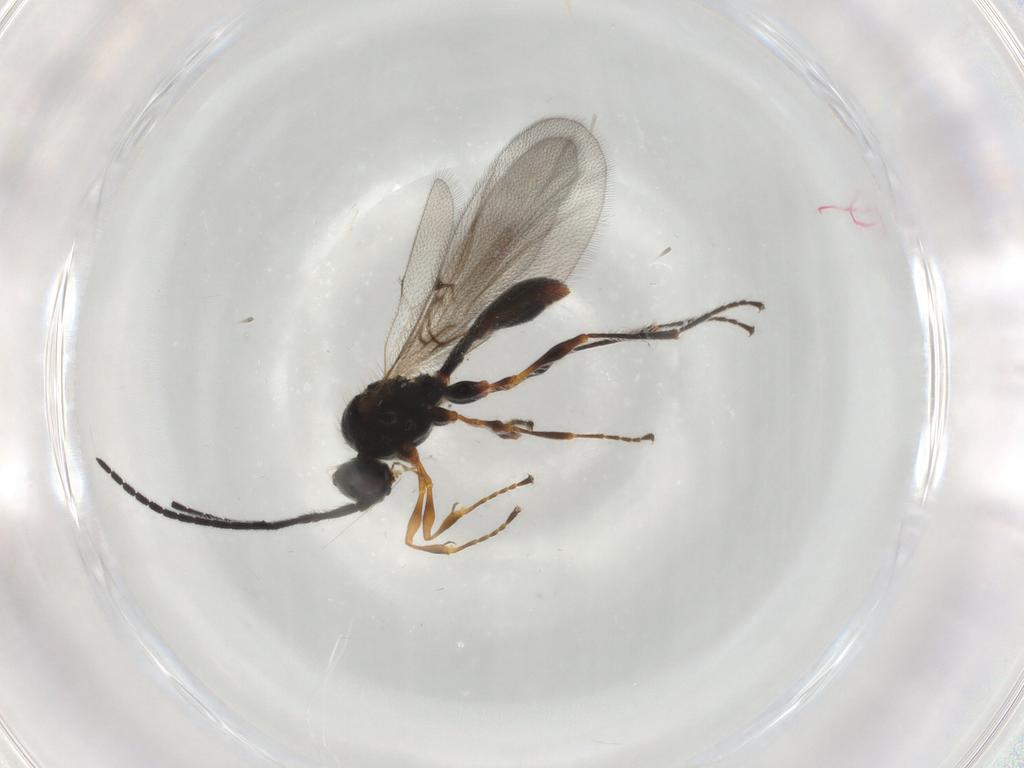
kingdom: Animalia
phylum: Arthropoda
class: Insecta
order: Hymenoptera
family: Diapriidae
